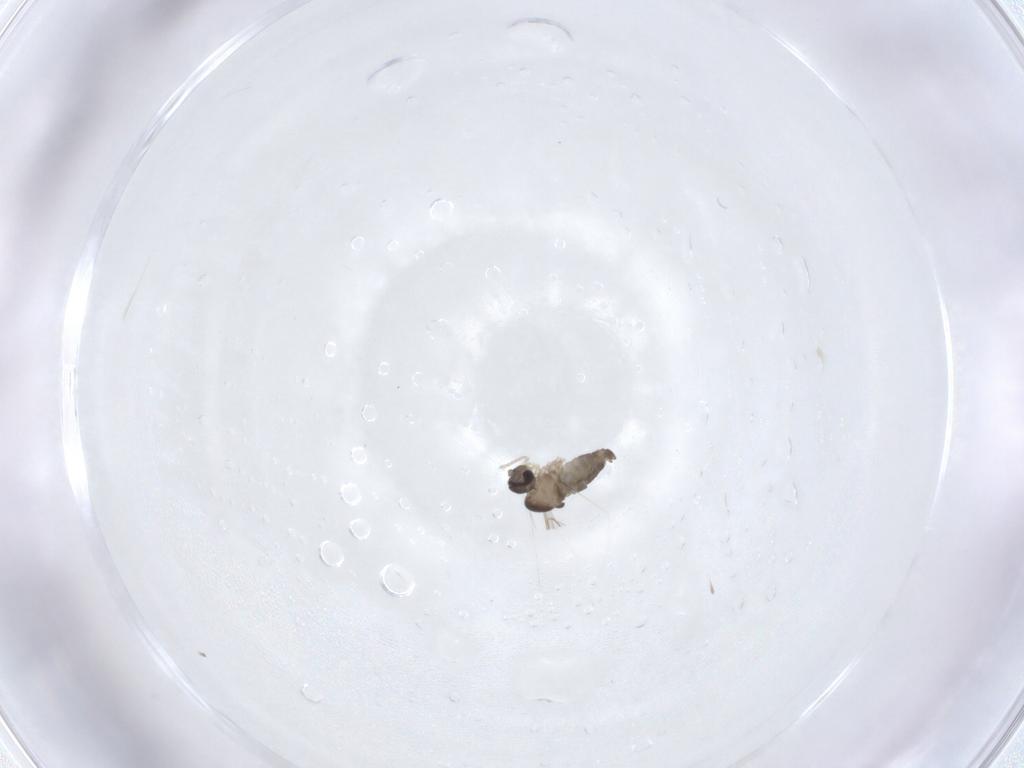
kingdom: Animalia
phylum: Arthropoda
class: Insecta
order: Diptera
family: Cecidomyiidae
